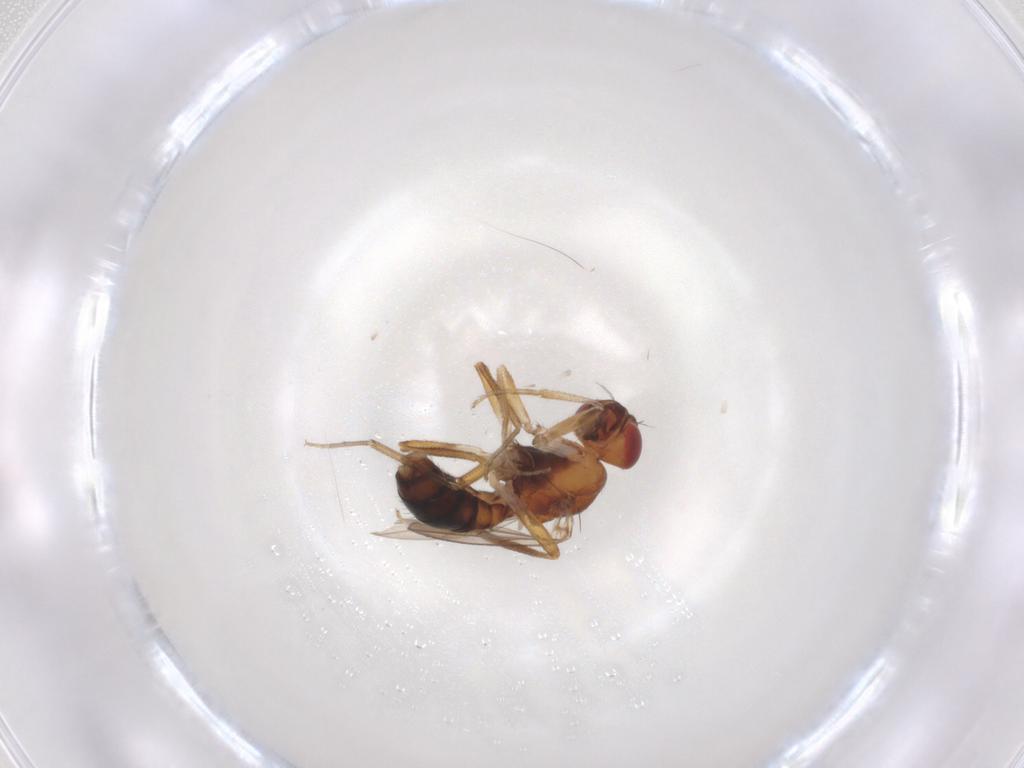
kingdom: Animalia
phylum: Arthropoda
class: Insecta
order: Diptera
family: Drosophilidae
